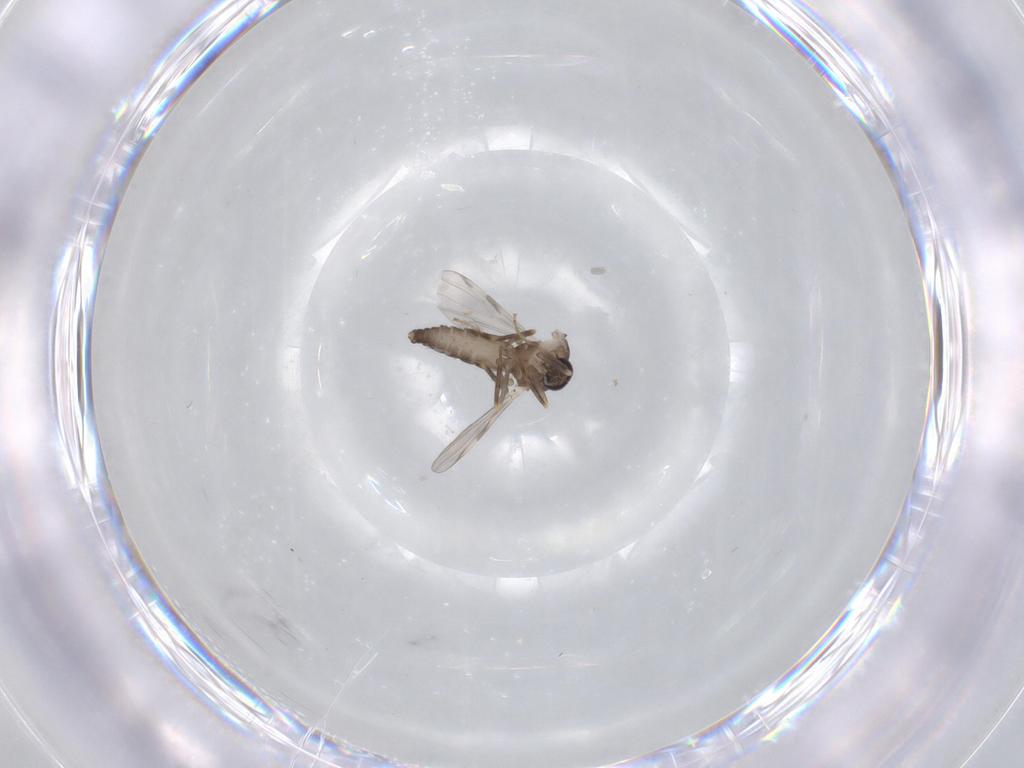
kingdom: Animalia
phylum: Arthropoda
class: Insecta
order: Diptera
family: Ceratopogonidae
